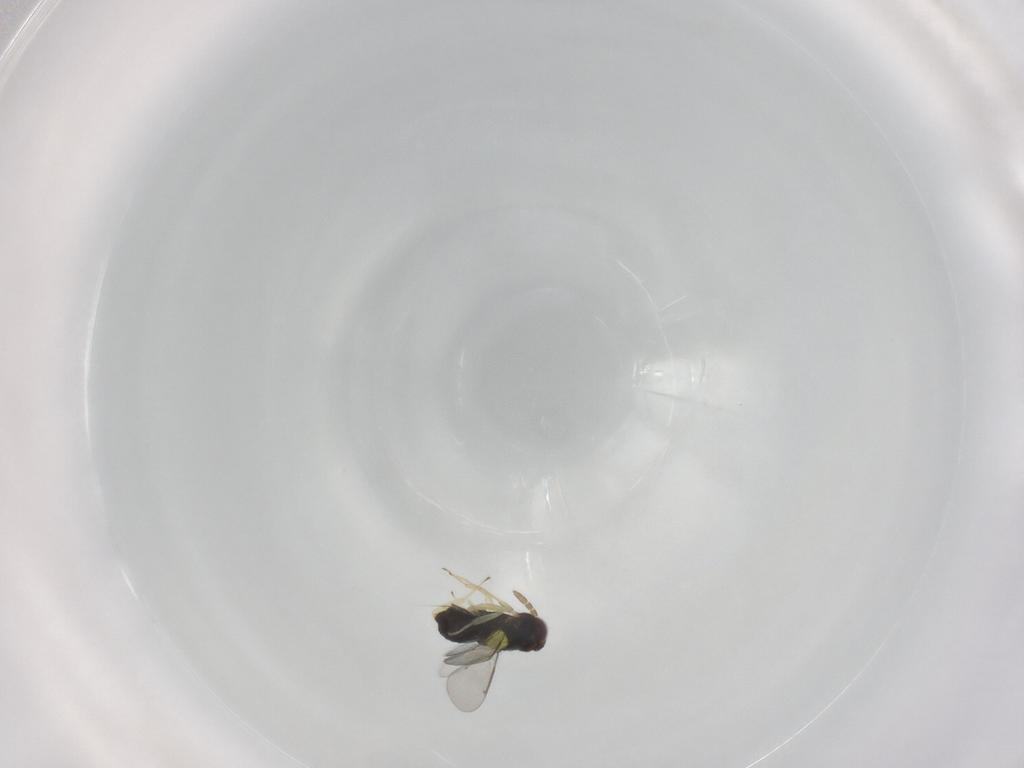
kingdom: Animalia
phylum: Arthropoda
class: Insecta
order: Hymenoptera
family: Aphelinidae
